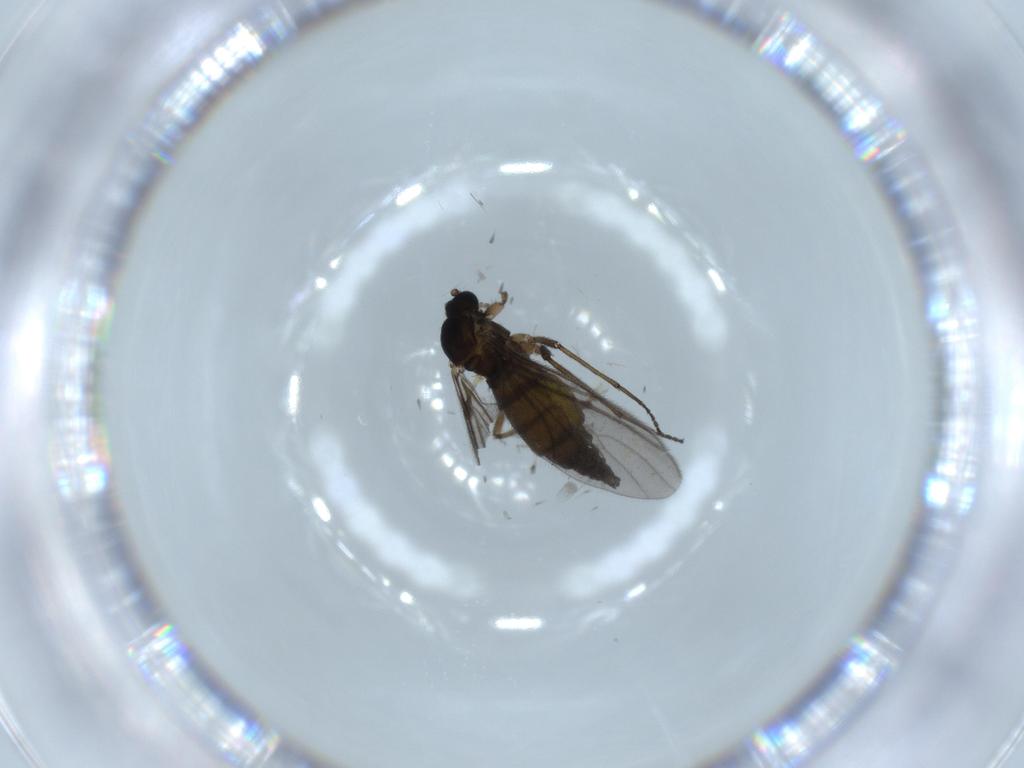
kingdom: Animalia
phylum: Arthropoda
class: Insecta
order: Diptera
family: Sciaridae
